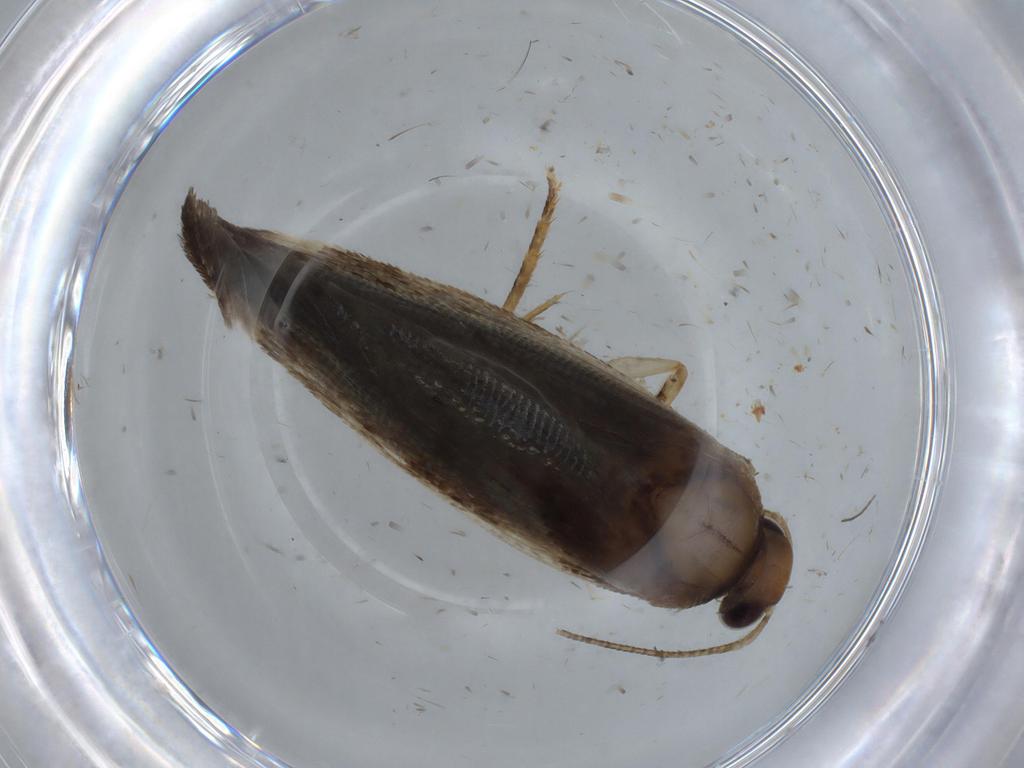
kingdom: Animalia
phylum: Arthropoda
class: Insecta
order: Lepidoptera
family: Gelechiidae
